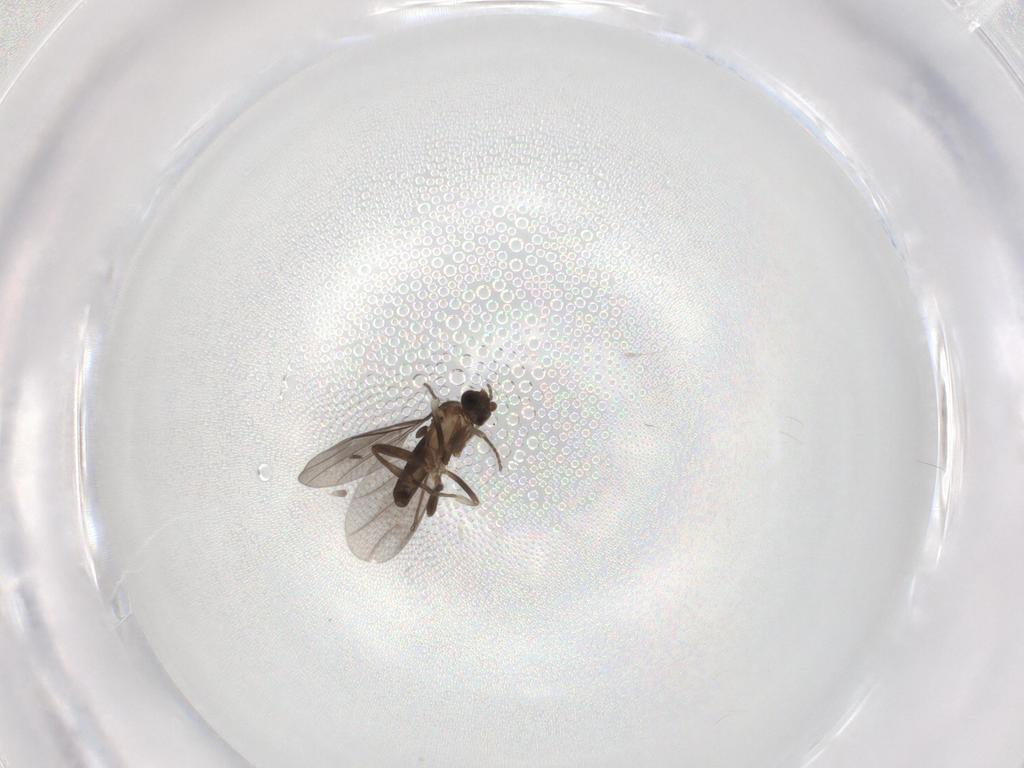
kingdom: Animalia
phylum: Arthropoda
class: Insecta
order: Diptera
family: Phoridae
